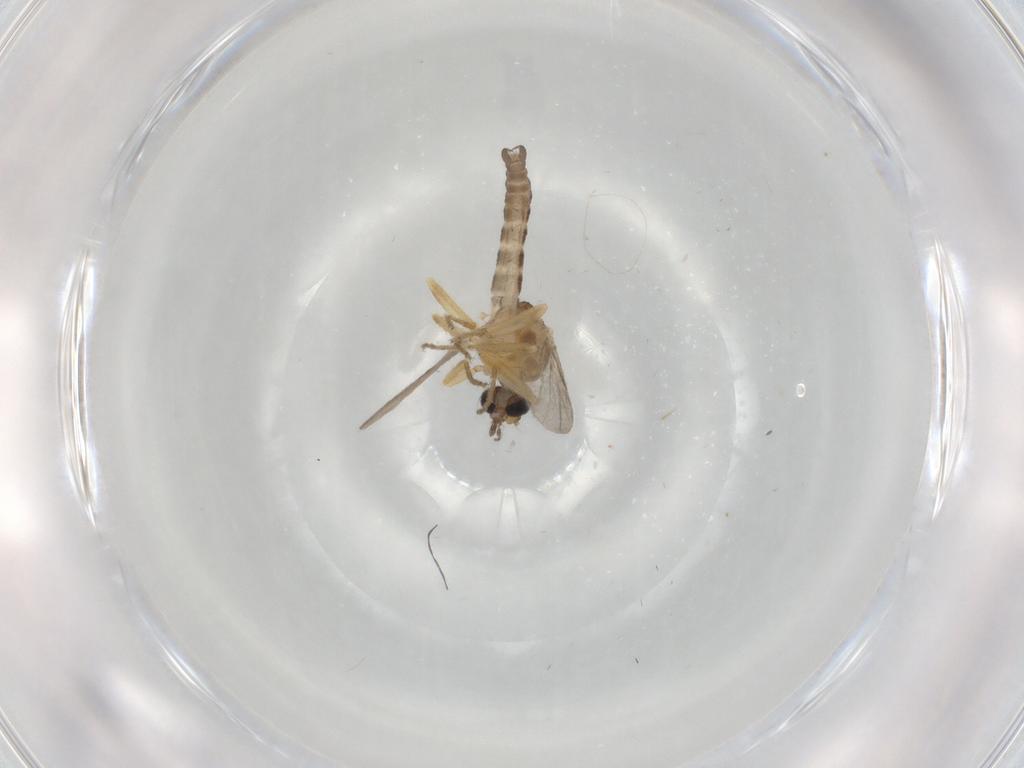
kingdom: Animalia
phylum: Arthropoda
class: Insecta
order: Diptera
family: Ceratopogonidae
